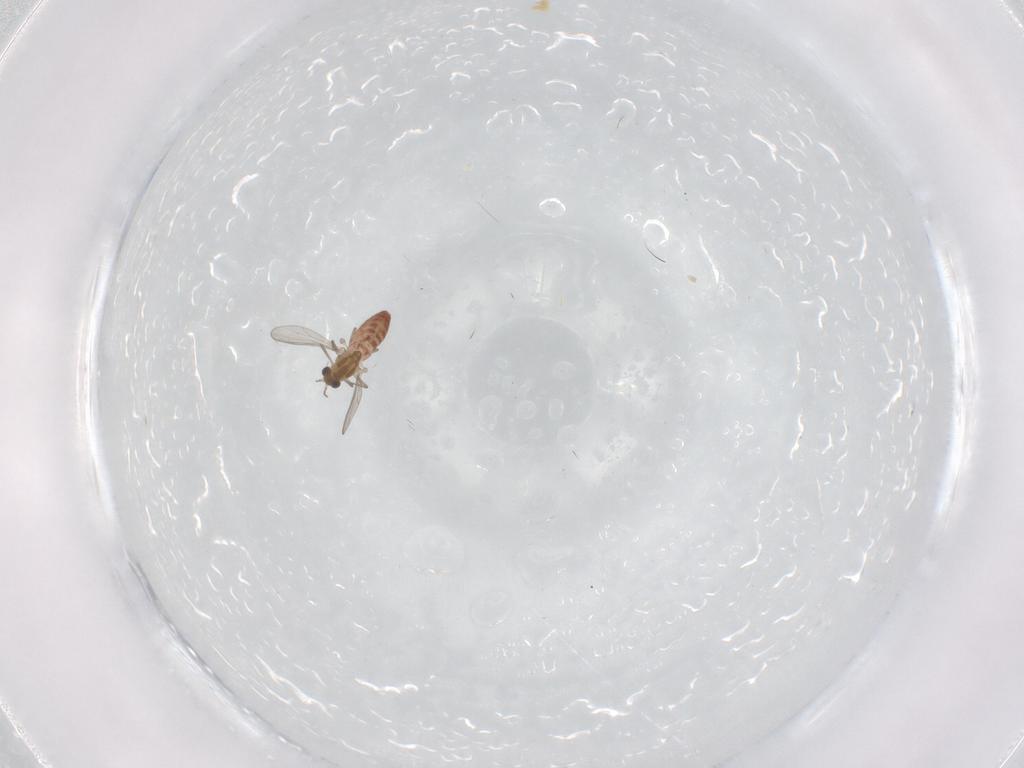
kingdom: Animalia
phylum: Arthropoda
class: Insecta
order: Diptera
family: Chironomidae
